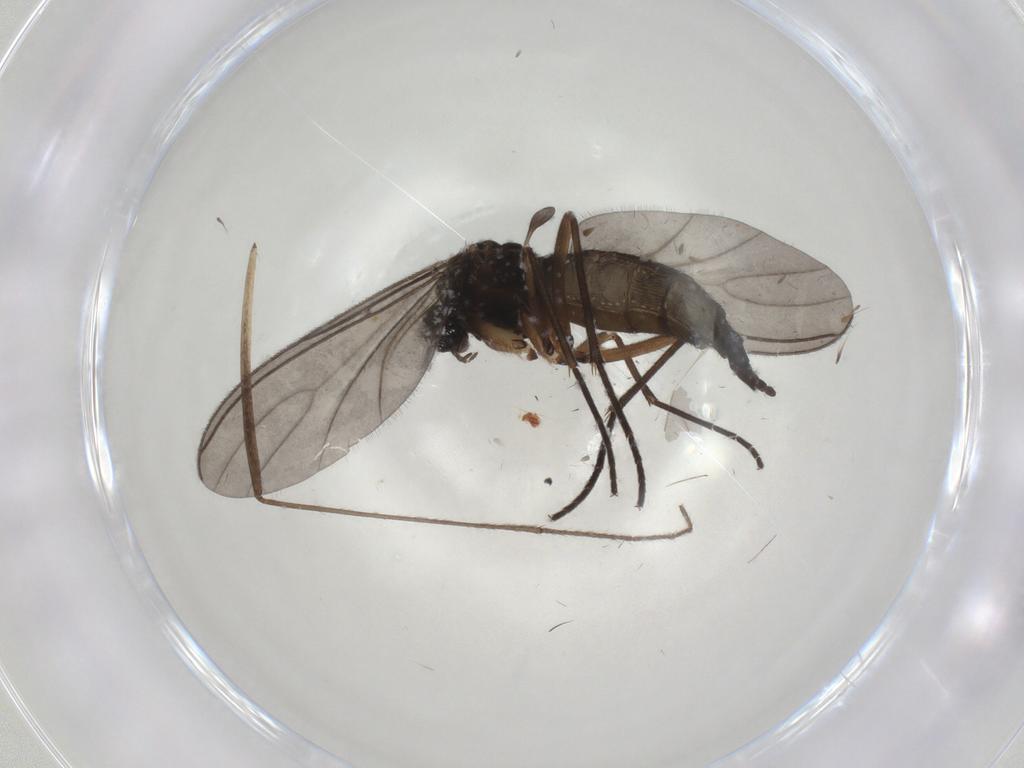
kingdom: Animalia
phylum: Arthropoda
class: Insecta
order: Diptera
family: Sciaridae
